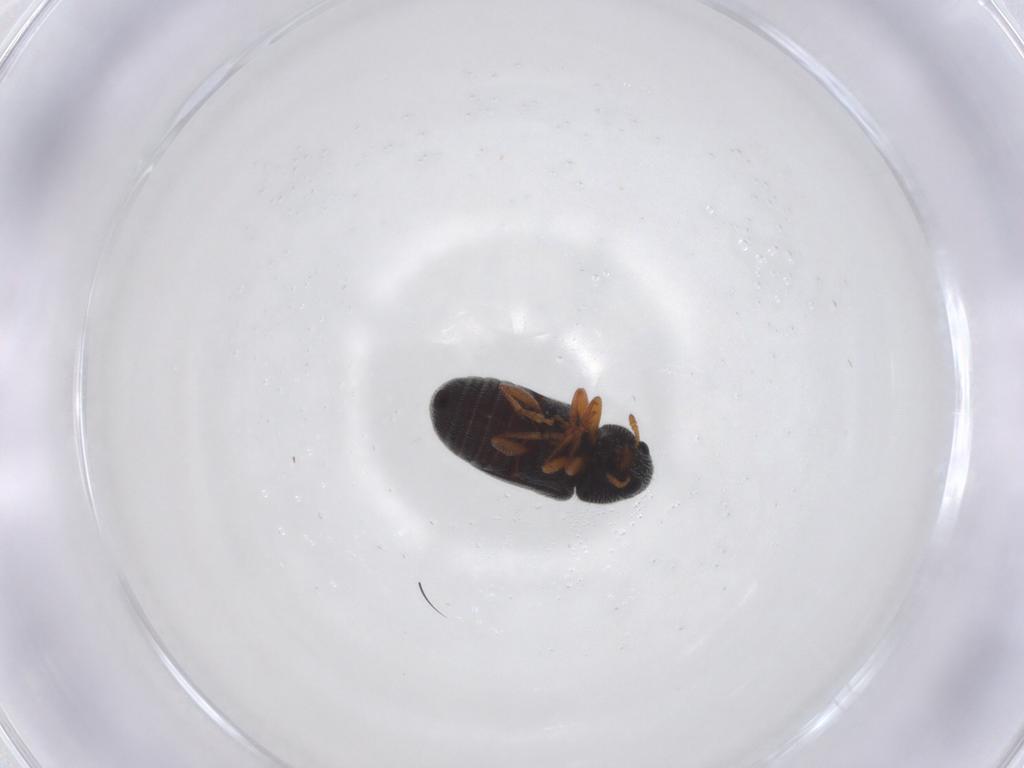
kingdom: Animalia
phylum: Arthropoda
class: Insecta
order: Coleoptera
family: Anthribidae
